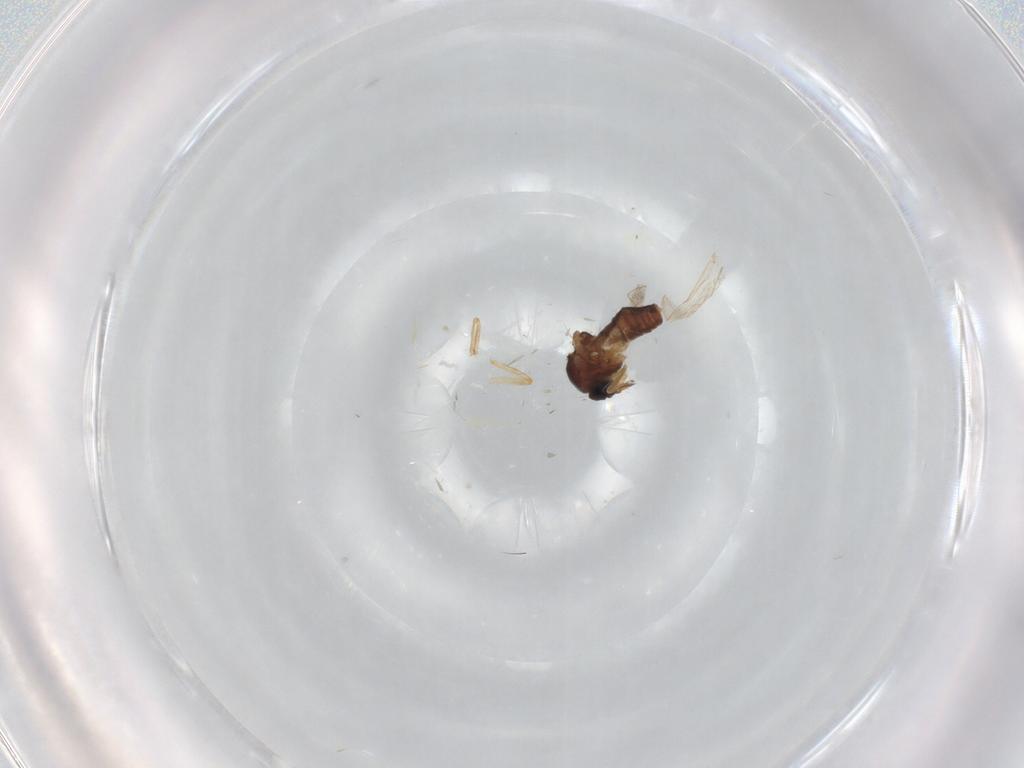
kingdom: Animalia
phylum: Arthropoda
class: Insecta
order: Diptera
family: Ceratopogonidae
